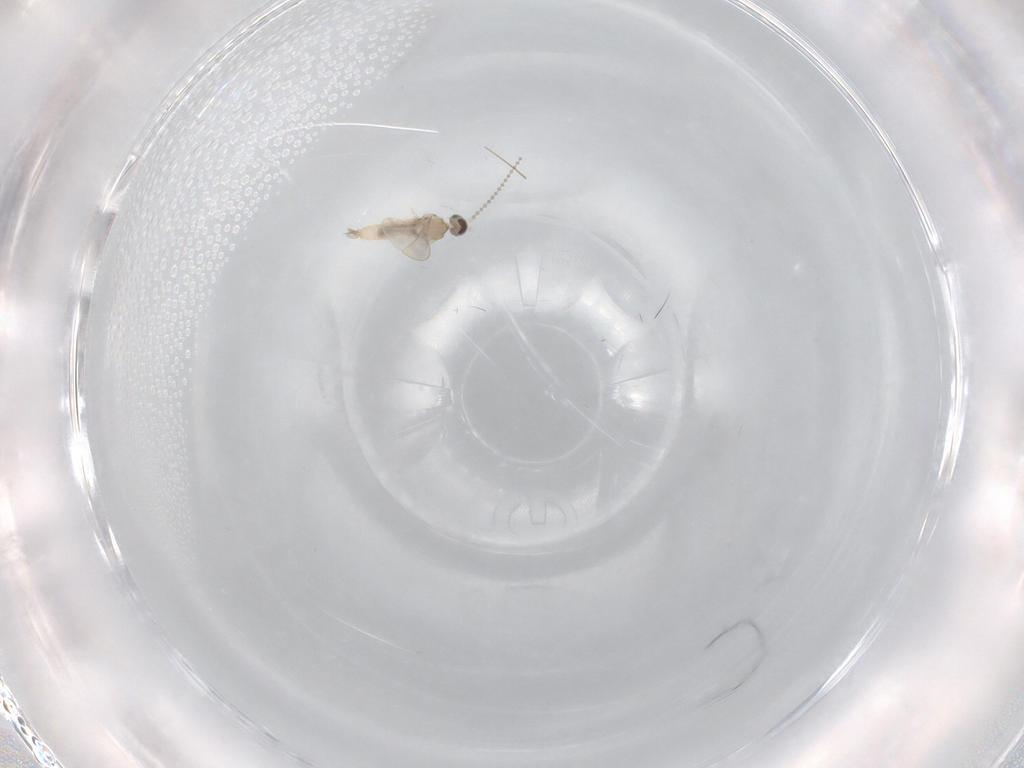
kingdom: Animalia
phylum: Arthropoda
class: Insecta
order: Diptera
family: Cecidomyiidae
